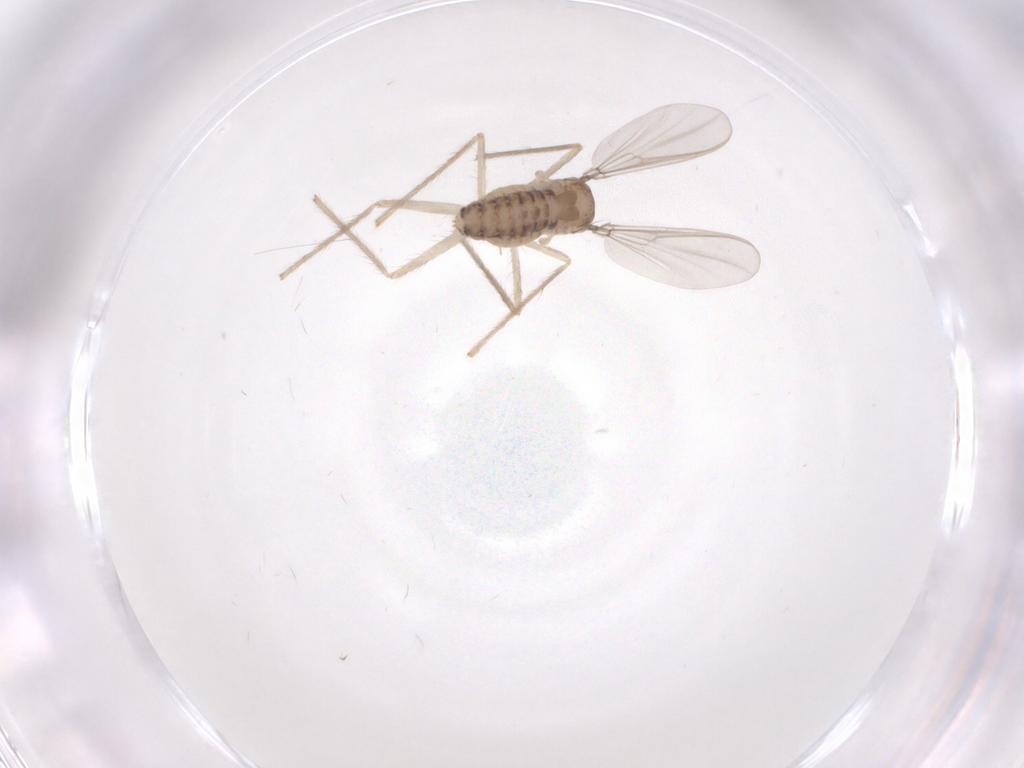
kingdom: Animalia
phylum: Arthropoda
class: Insecta
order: Diptera
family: Chironomidae
